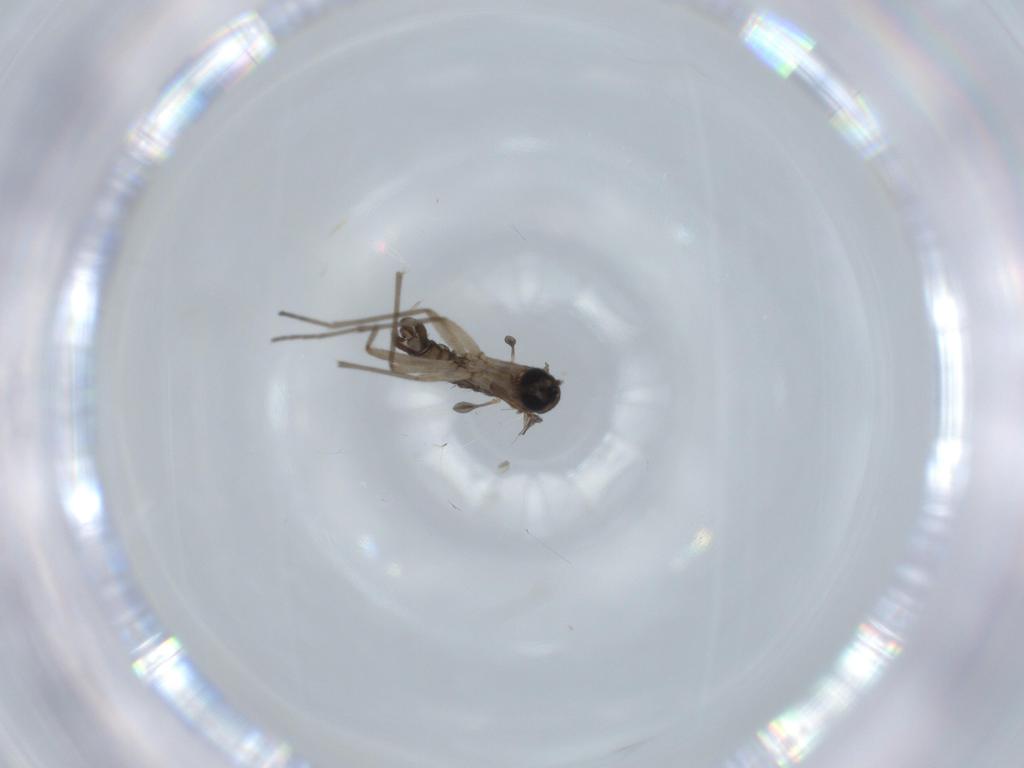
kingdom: Animalia
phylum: Arthropoda
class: Insecta
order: Diptera
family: Sciaridae
